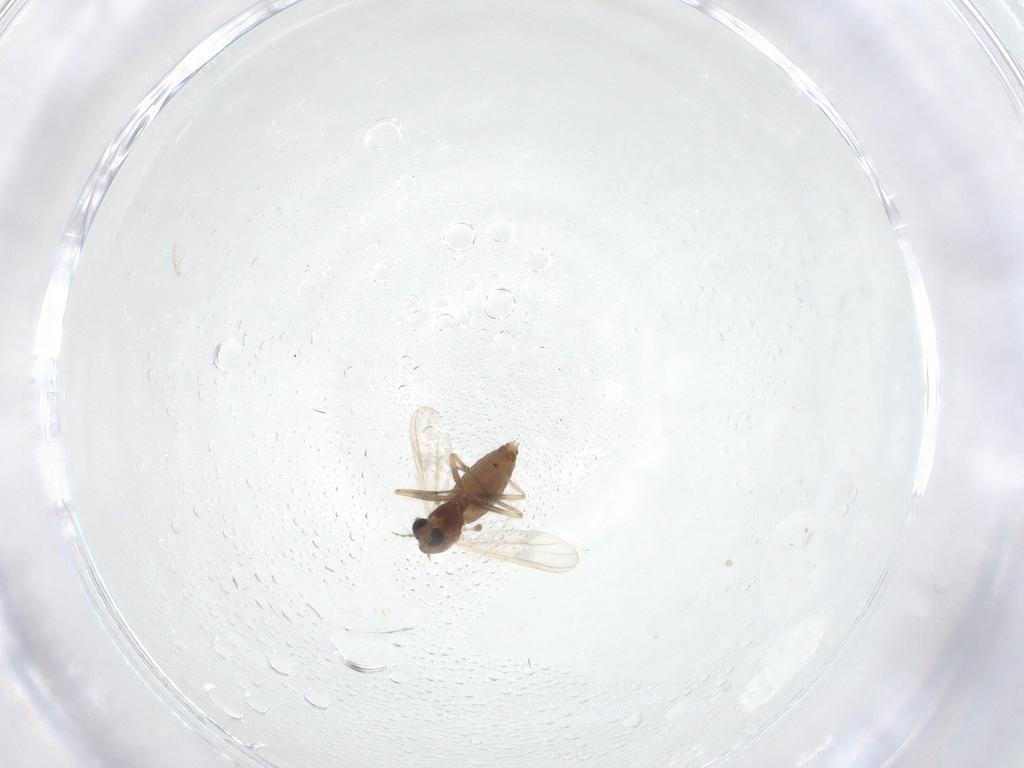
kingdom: Animalia
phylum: Arthropoda
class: Insecta
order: Diptera
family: Chironomidae
